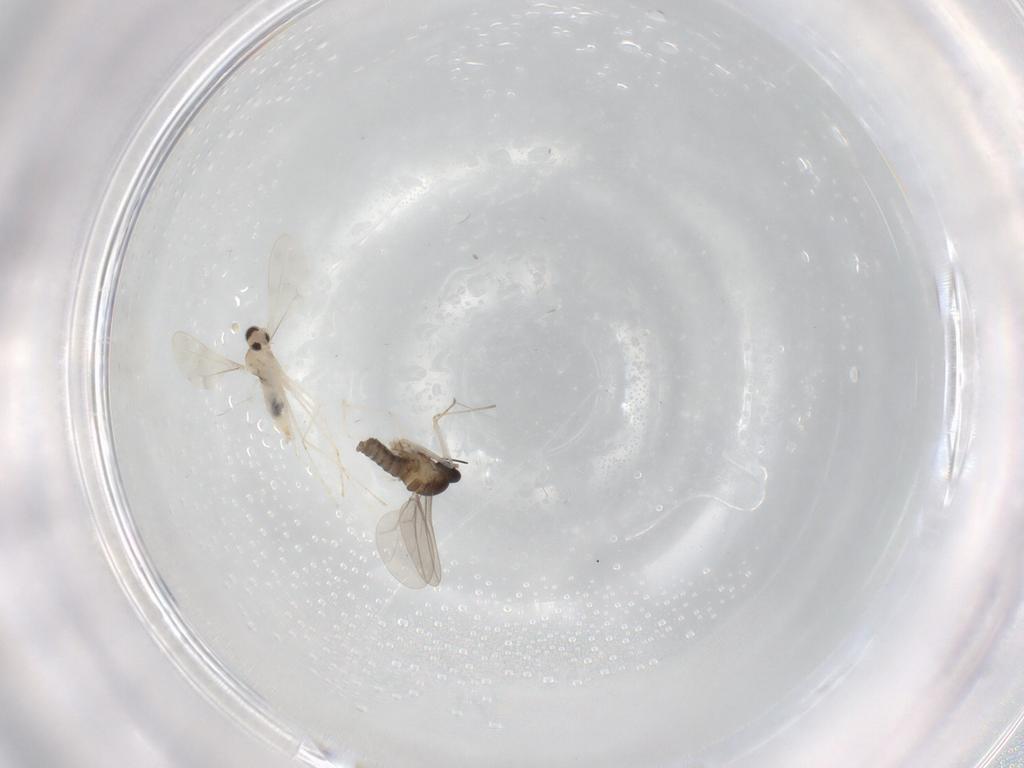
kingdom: Animalia
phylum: Arthropoda
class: Insecta
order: Diptera
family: Cecidomyiidae
